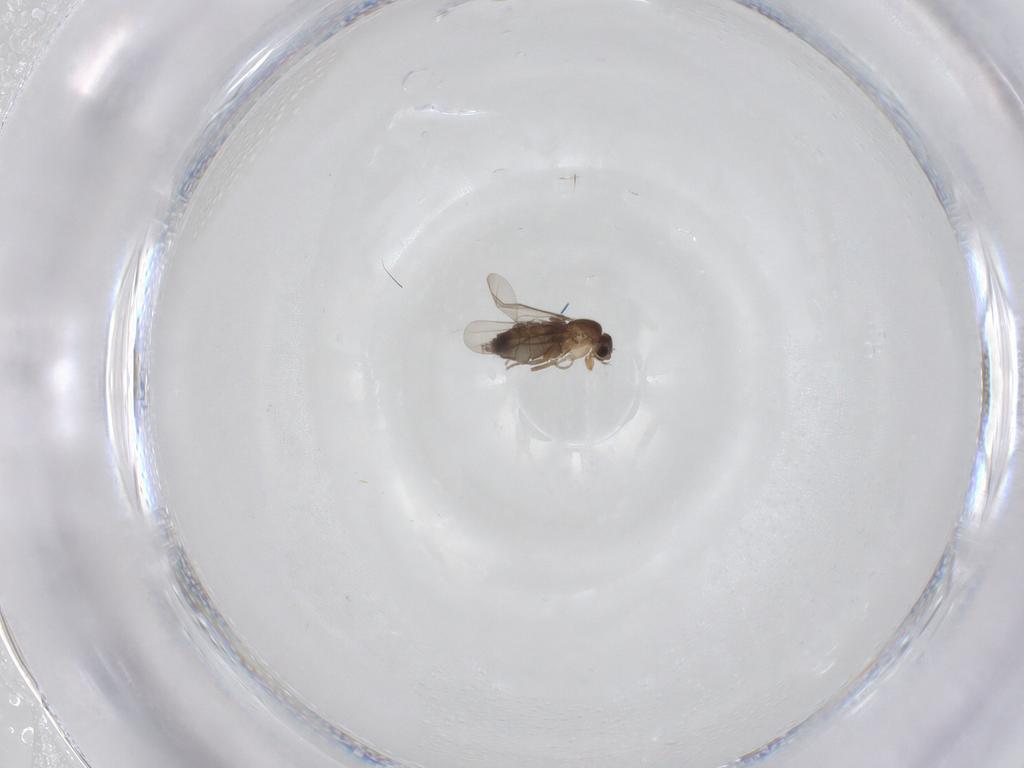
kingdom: Animalia
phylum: Arthropoda
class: Insecta
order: Diptera
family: Phoridae
